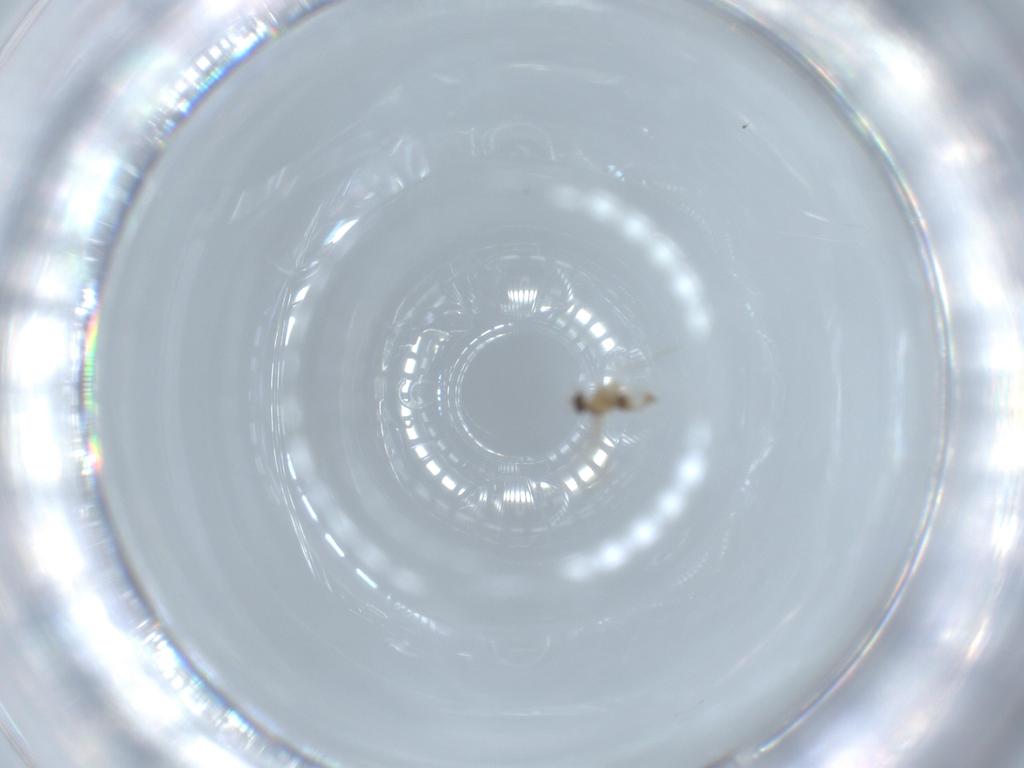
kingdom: Animalia
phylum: Arthropoda
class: Insecta
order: Diptera
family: Cecidomyiidae
